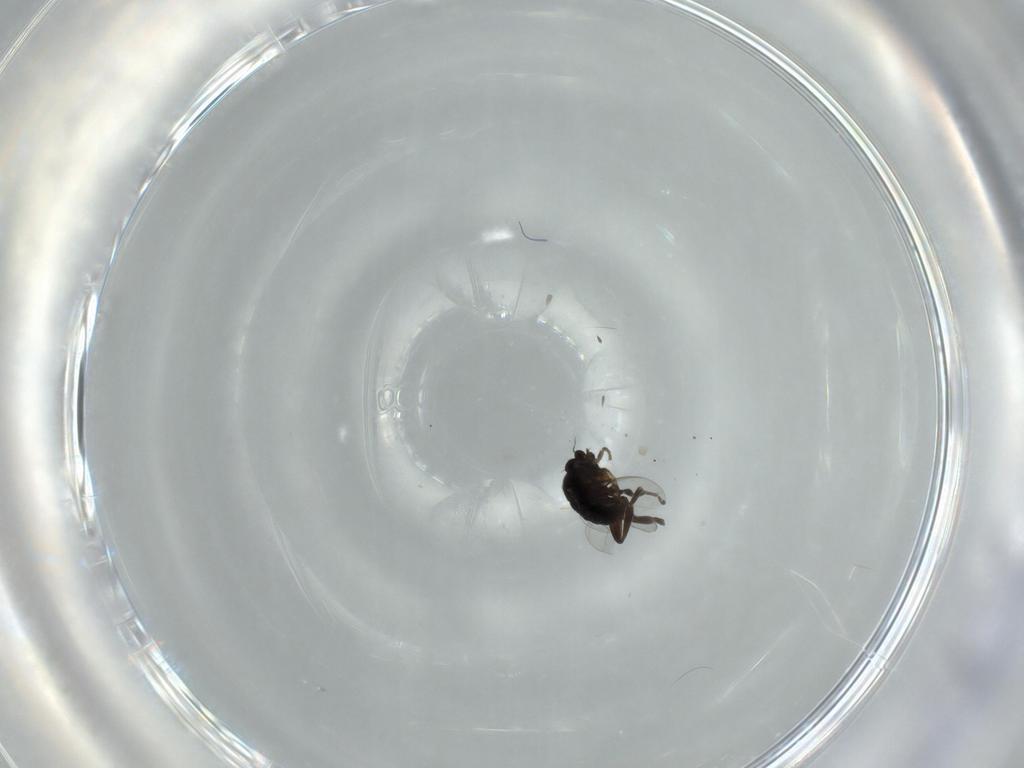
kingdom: Animalia
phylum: Arthropoda
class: Insecta
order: Diptera
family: Phoridae
